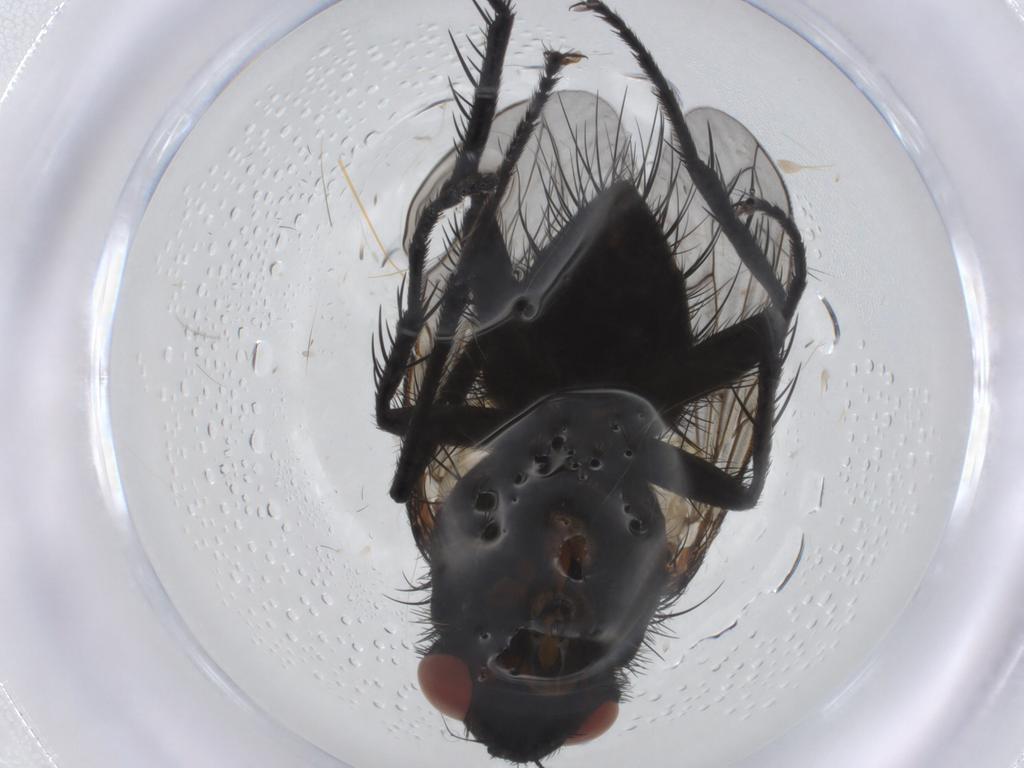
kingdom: Animalia
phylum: Arthropoda
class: Insecta
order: Diptera
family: Tachinidae
